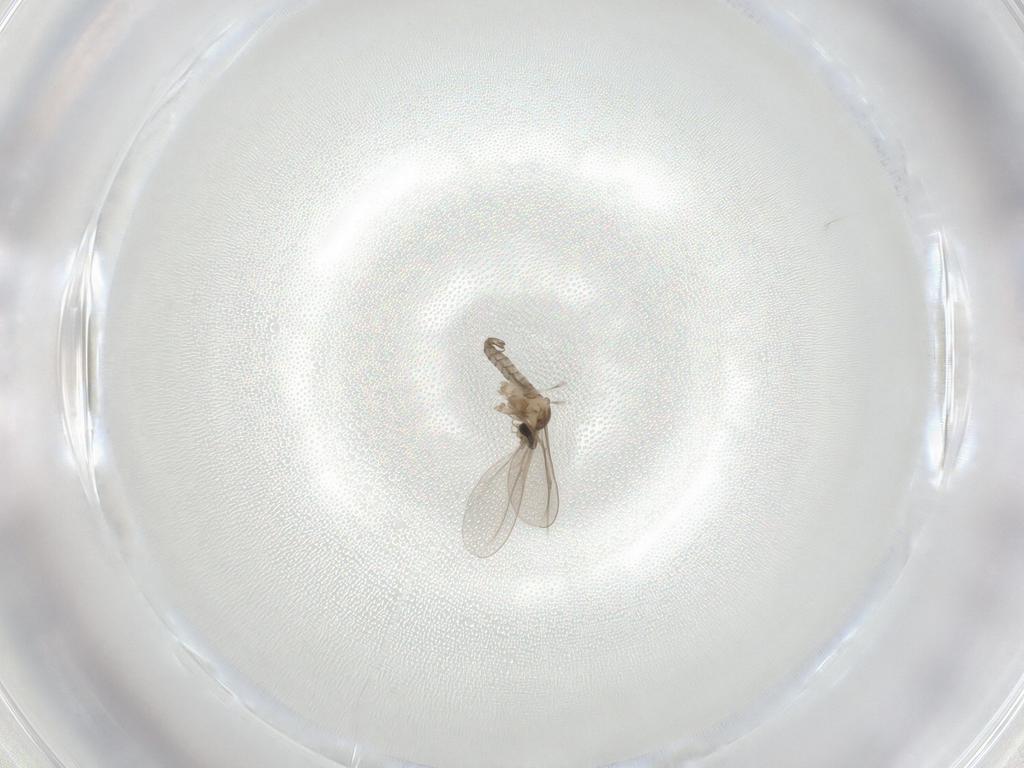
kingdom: Animalia
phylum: Arthropoda
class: Insecta
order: Diptera
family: Cecidomyiidae
